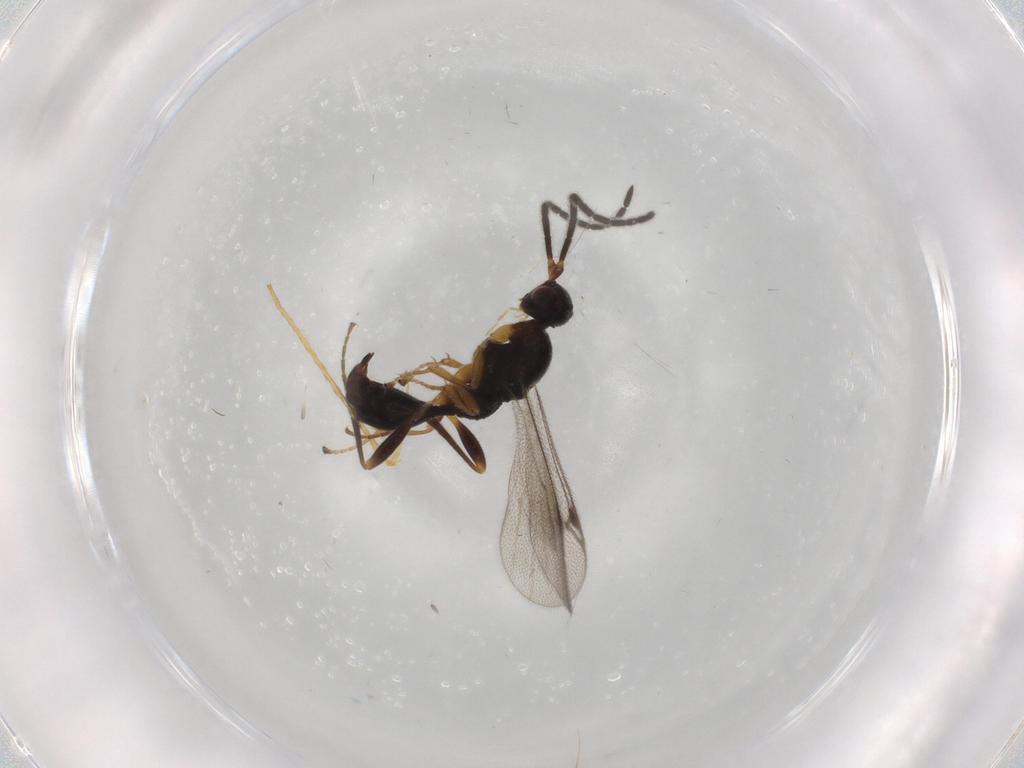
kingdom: Animalia
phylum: Arthropoda
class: Insecta
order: Hymenoptera
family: Proctotrupidae
